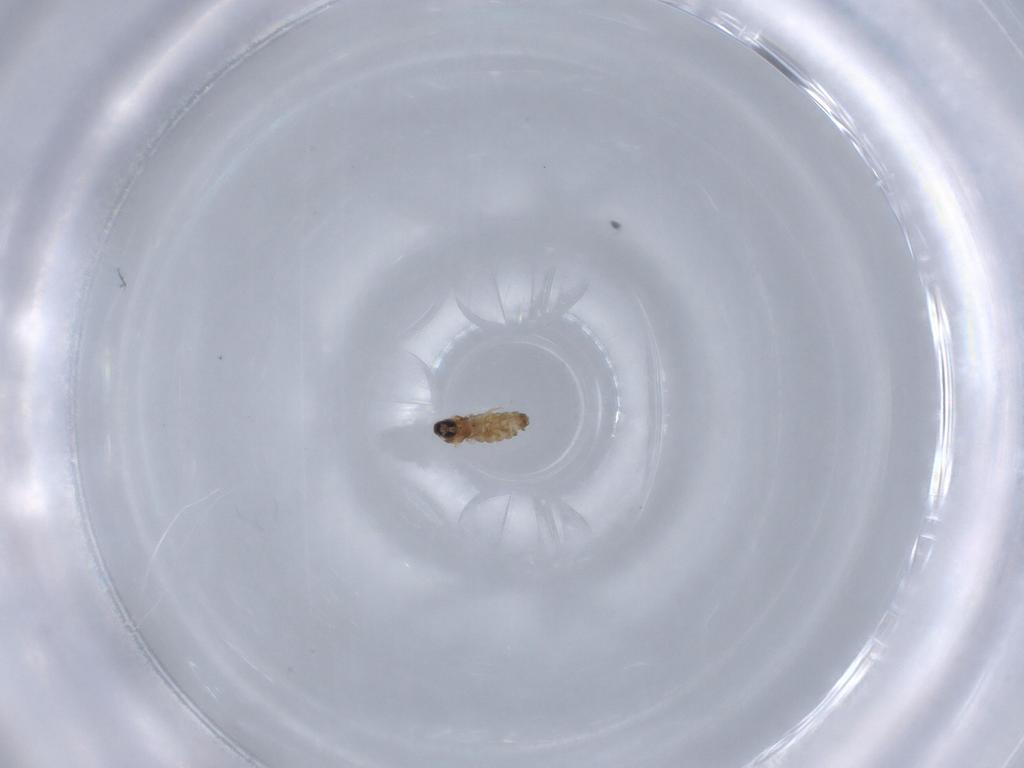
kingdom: Animalia
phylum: Arthropoda
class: Insecta
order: Diptera
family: Cecidomyiidae
